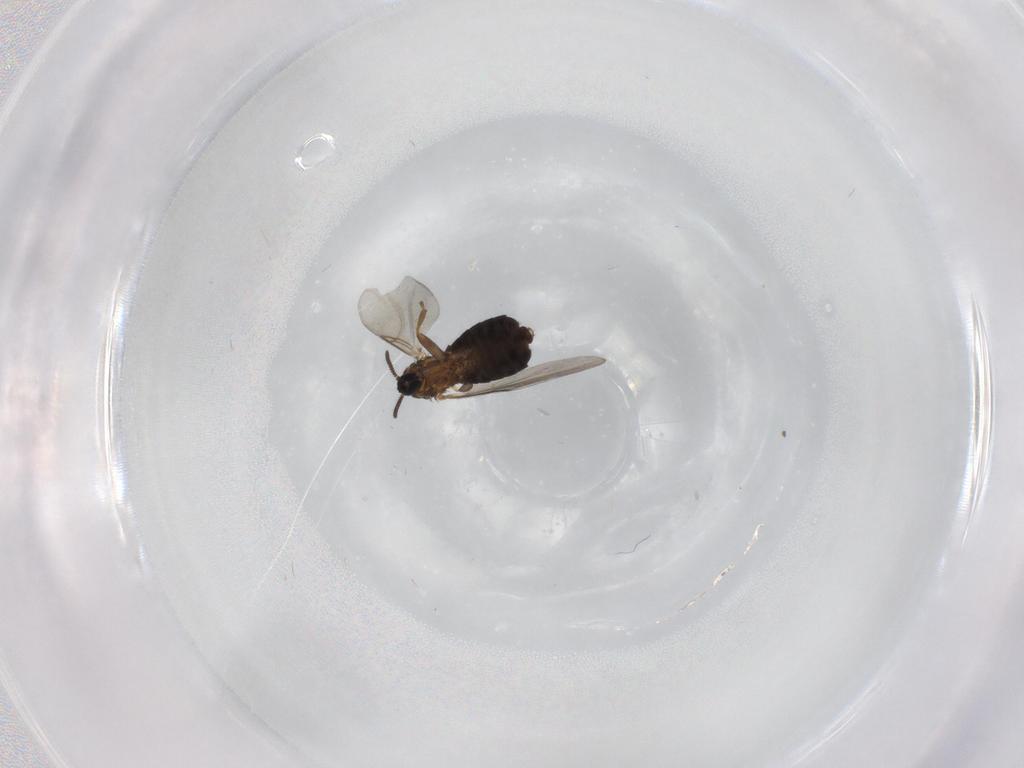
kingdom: Animalia
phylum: Arthropoda
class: Insecta
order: Diptera
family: Scatopsidae
